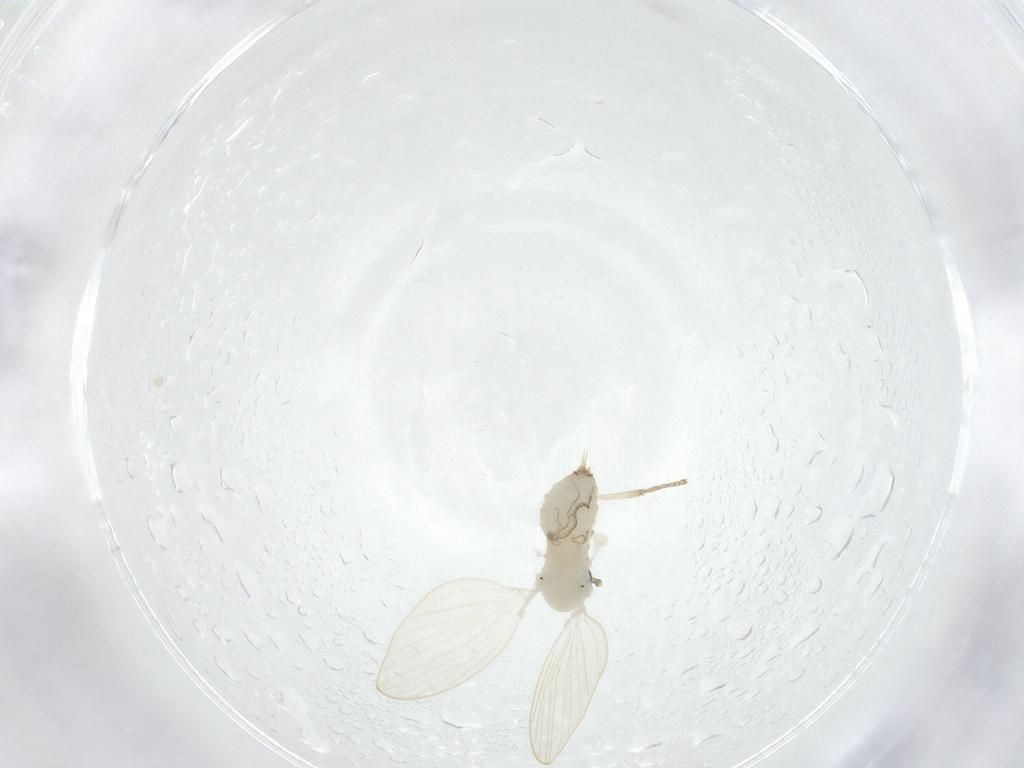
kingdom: Animalia
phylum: Arthropoda
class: Insecta
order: Diptera
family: Psychodidae
